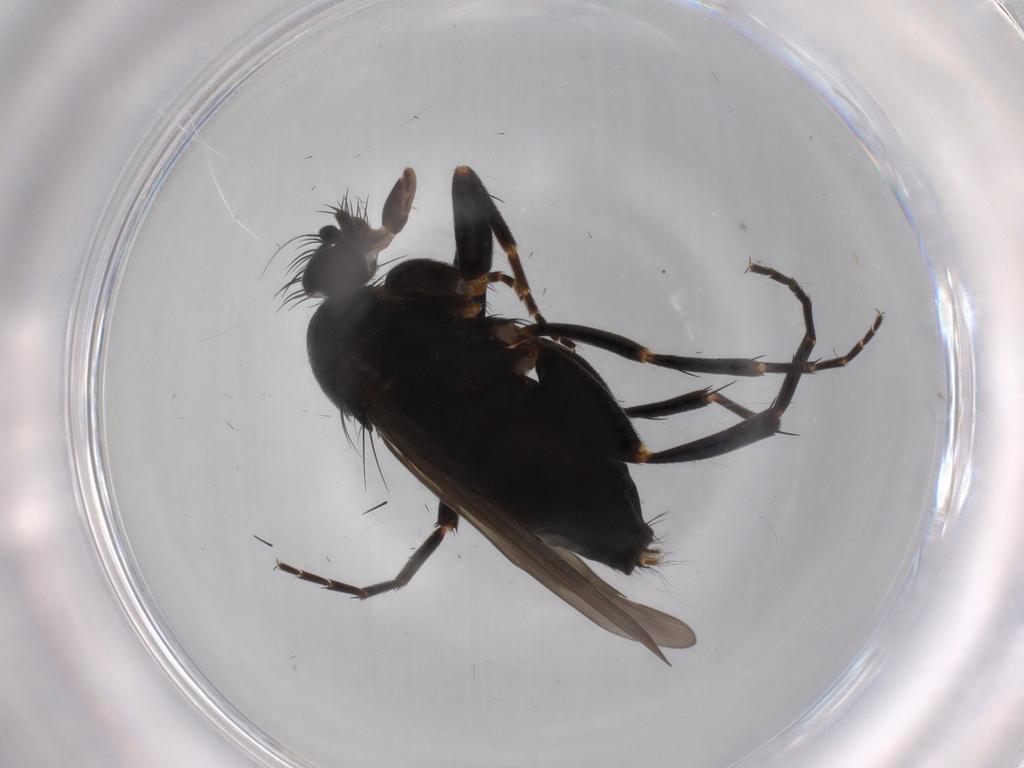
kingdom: Animalia
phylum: Arthropoda
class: Insecta
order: Diptera
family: Phoridae
